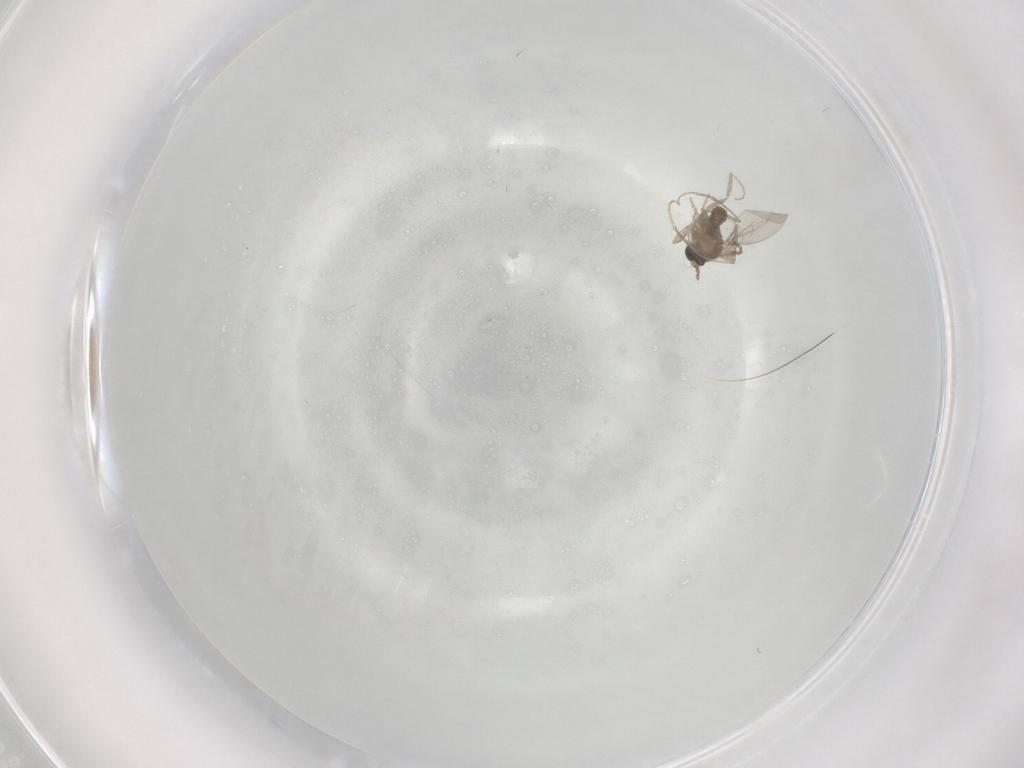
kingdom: Animalia
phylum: Arthropoda
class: Insecta
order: Diptera
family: Cecidomyiidae
